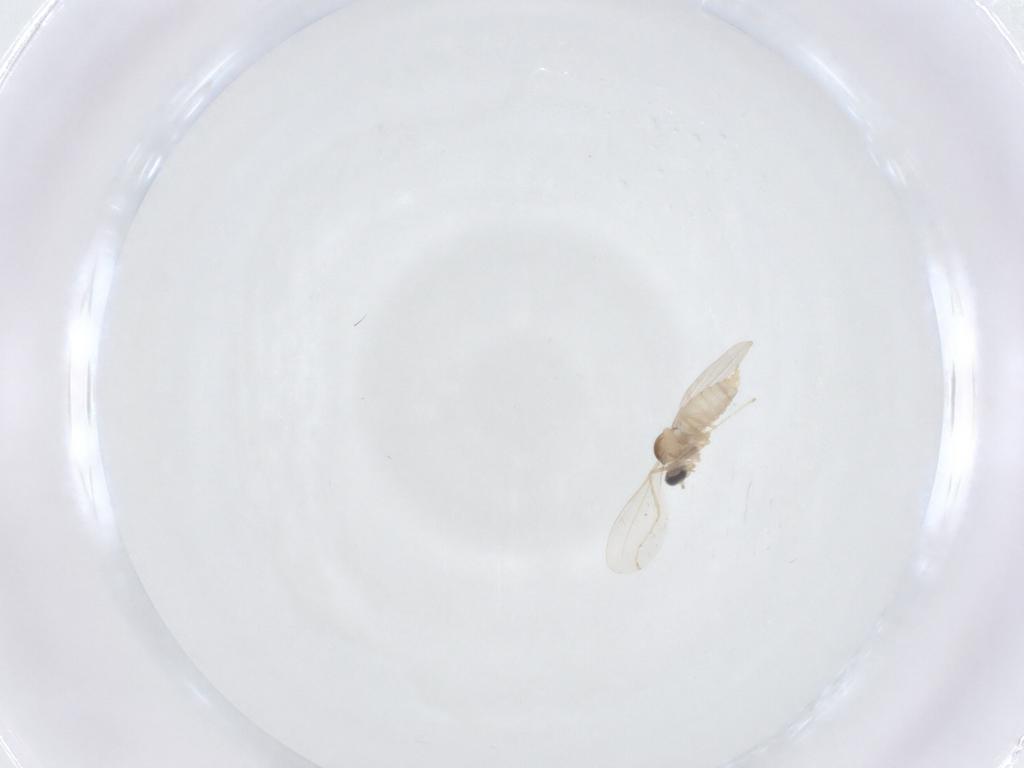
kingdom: Animalia
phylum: Arthropoda
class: Insecta
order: Diptera
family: Cecidomyiidae
